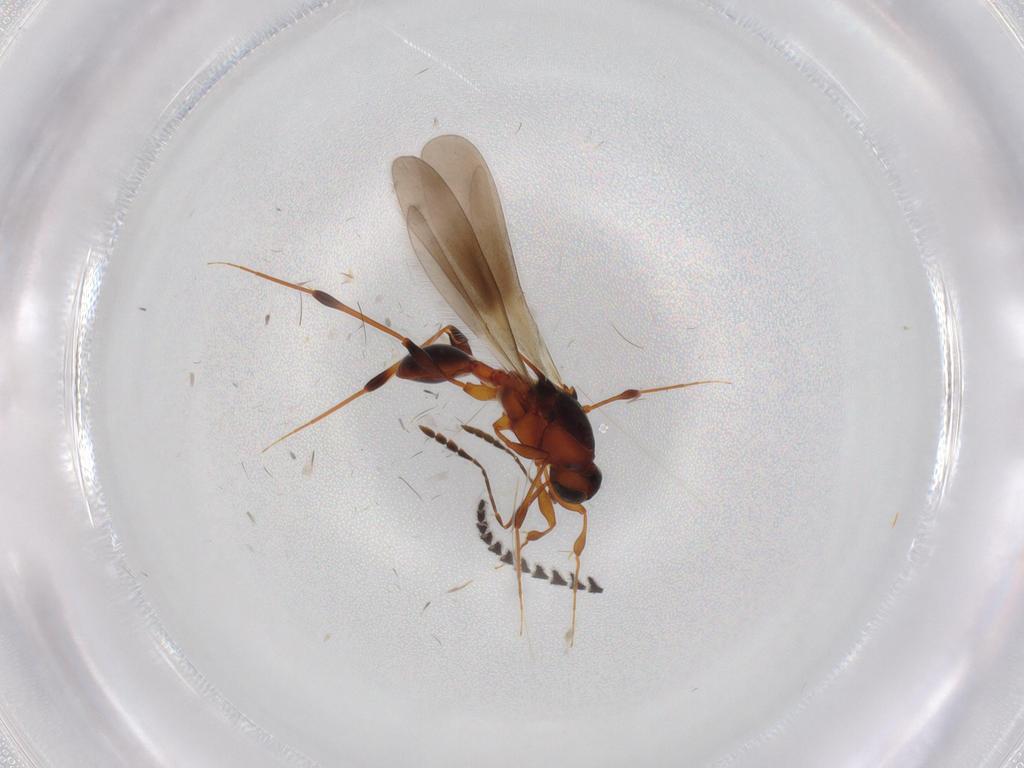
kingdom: Animalia
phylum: Arthropoda
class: Insecta
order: Hymenoptera
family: Platygastridae
